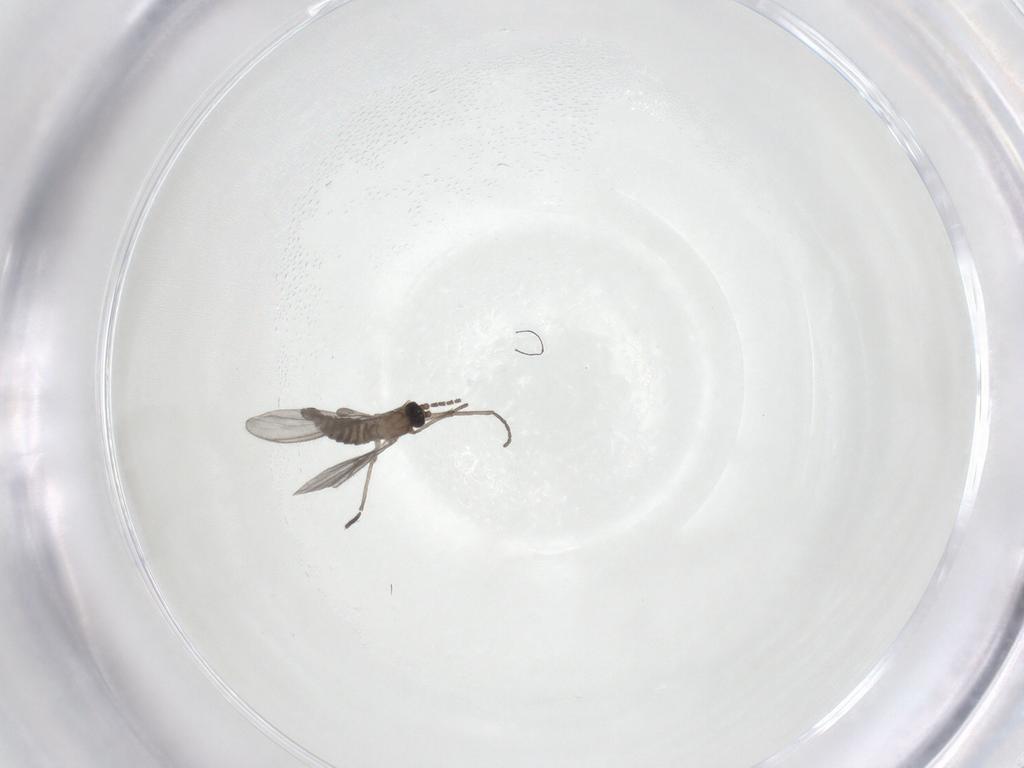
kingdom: Animalia
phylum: Arthropoda
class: Insecta
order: Diptera
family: Sciaridae
